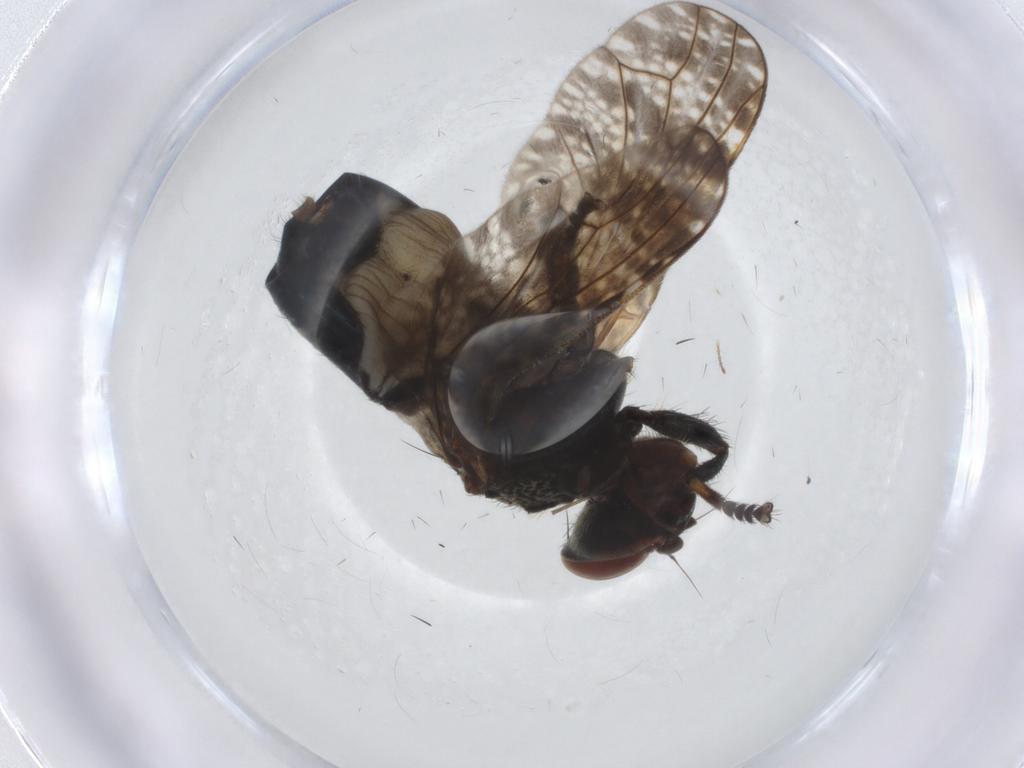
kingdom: Animalia
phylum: Arthropoda
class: Insecta
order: Diptera
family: Platystomatidae
